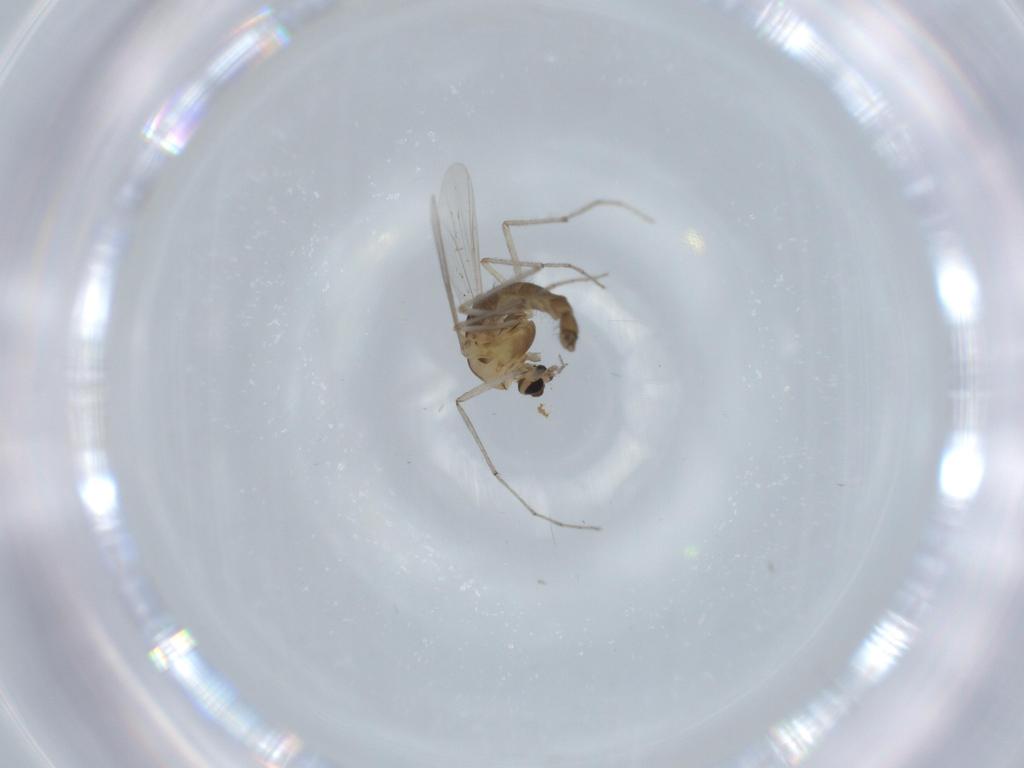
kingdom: Animalia
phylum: Arthropoda
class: Insecta
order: Diptera
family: Chironomidae
